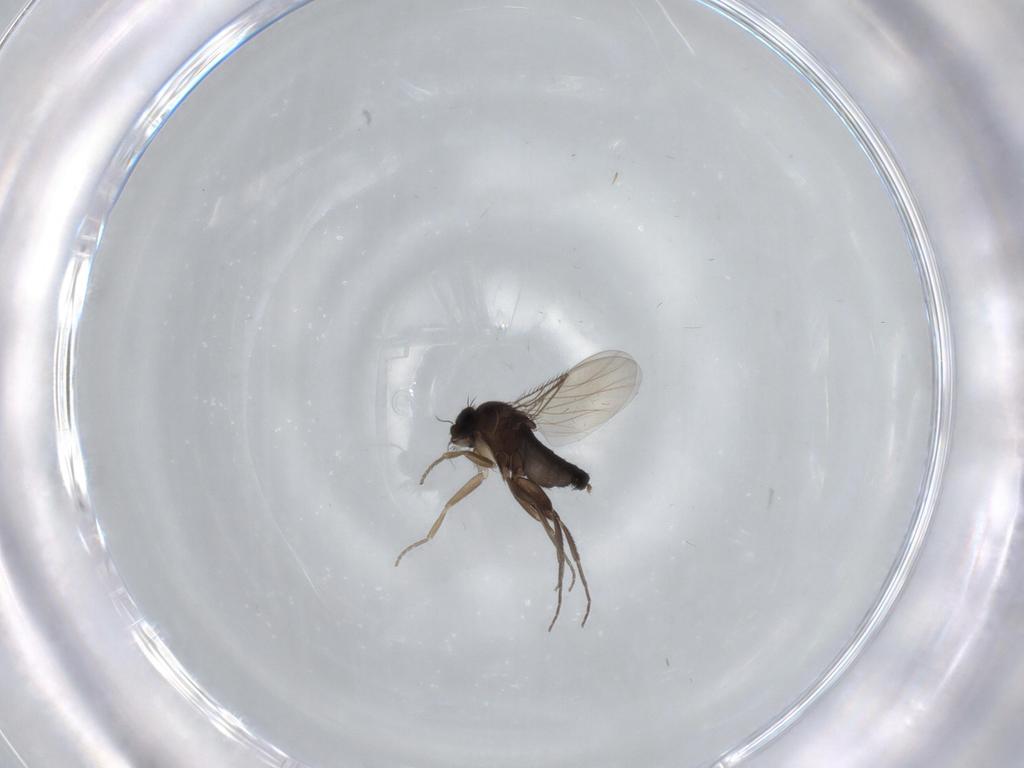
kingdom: Animalia
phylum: Arthropoda
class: Insecta
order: Diptera
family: Phoridae
